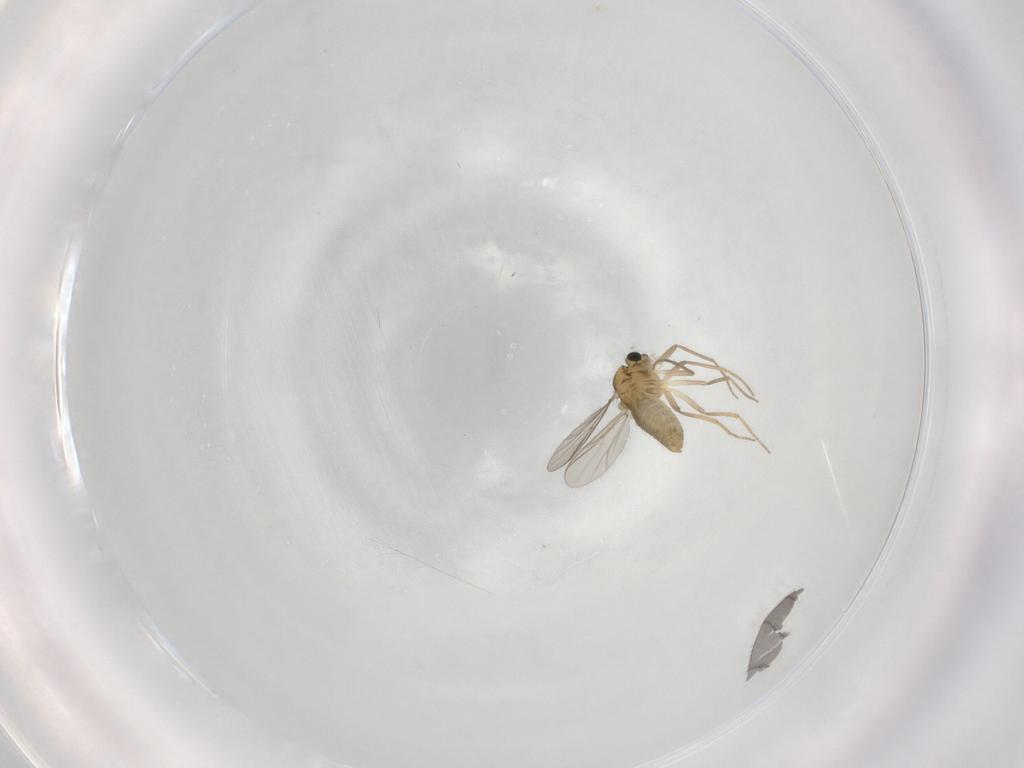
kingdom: Animalia
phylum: Arthropoda
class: Insecta
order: Diptera
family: Chironomidae
